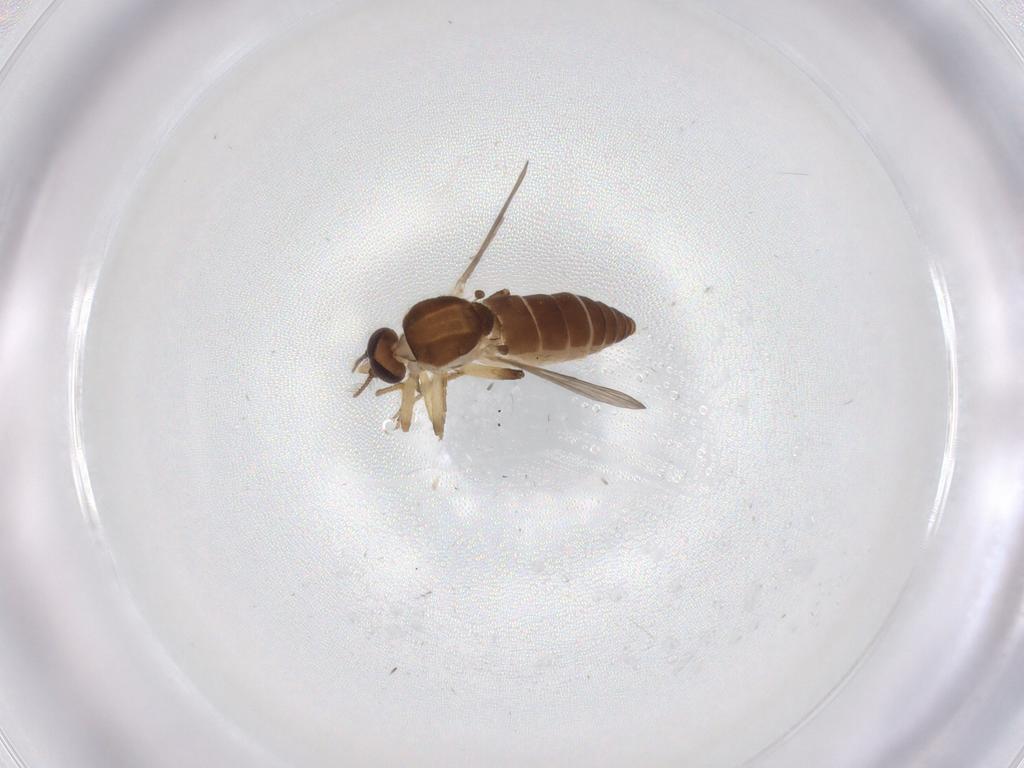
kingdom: Animalia
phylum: Arthropoda
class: Insecta
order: Diptera
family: Ceratopogonidae
